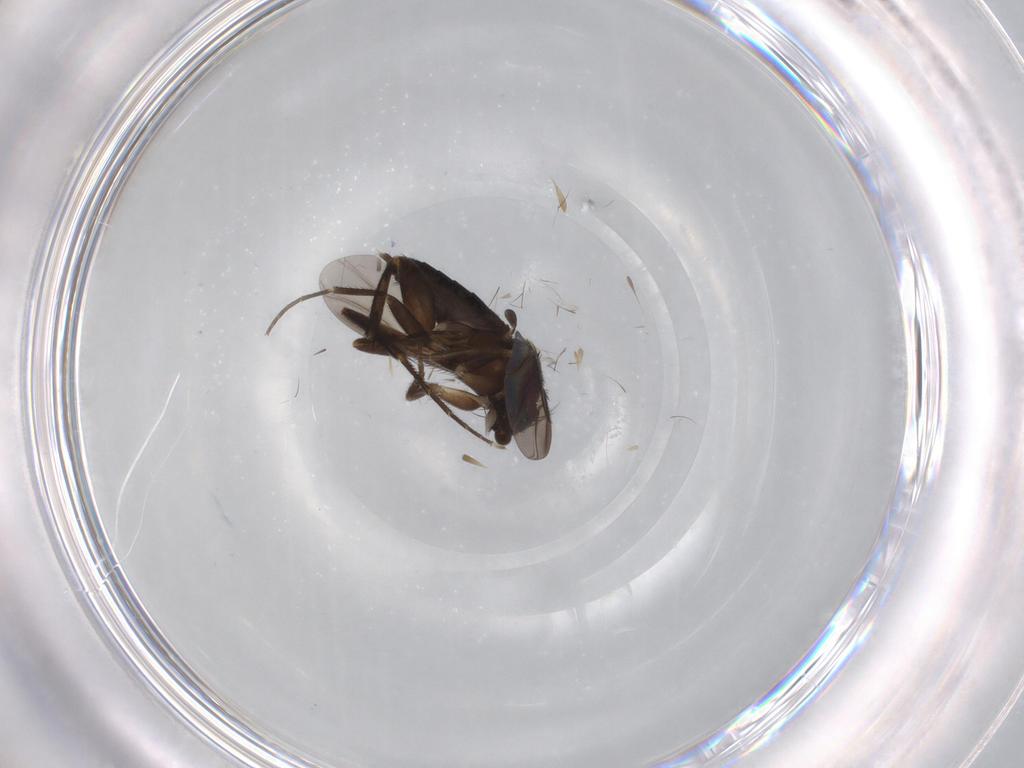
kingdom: Animalia
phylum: Arthropoda
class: Insecta
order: Diptera
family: Phoridae
